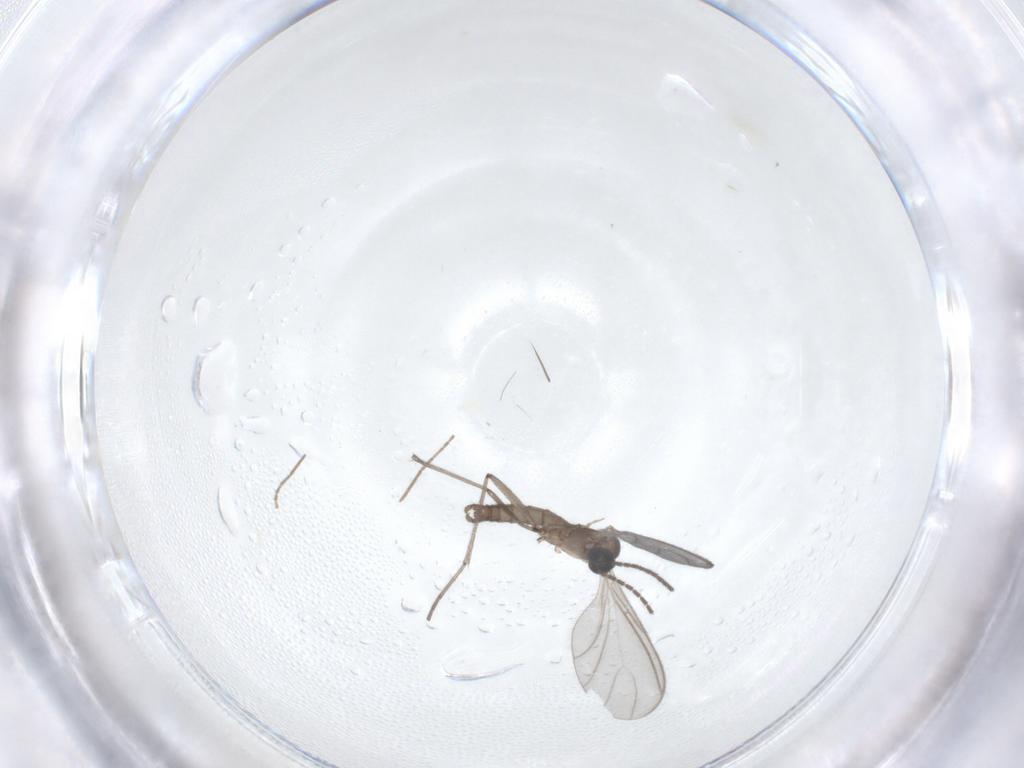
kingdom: Animalia
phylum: Arthropoda
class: Insecta
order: Diptera
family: Sciaridae
